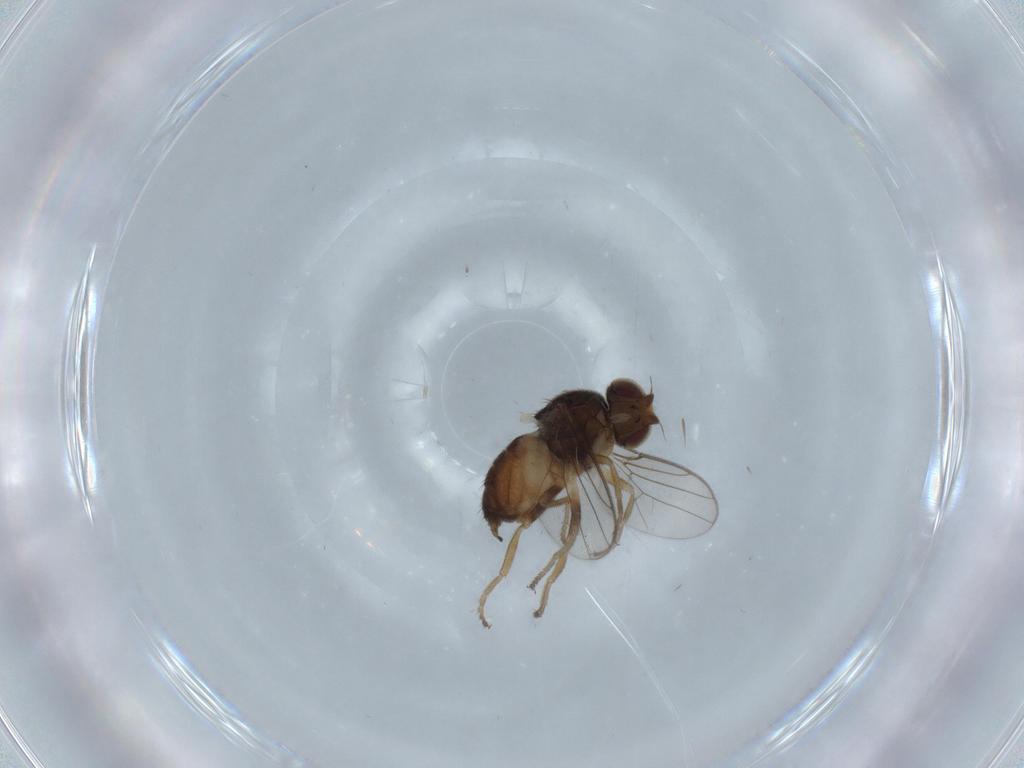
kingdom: Animalia
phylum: Arthropoda
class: Insecta
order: Diptera
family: Chloropidae
